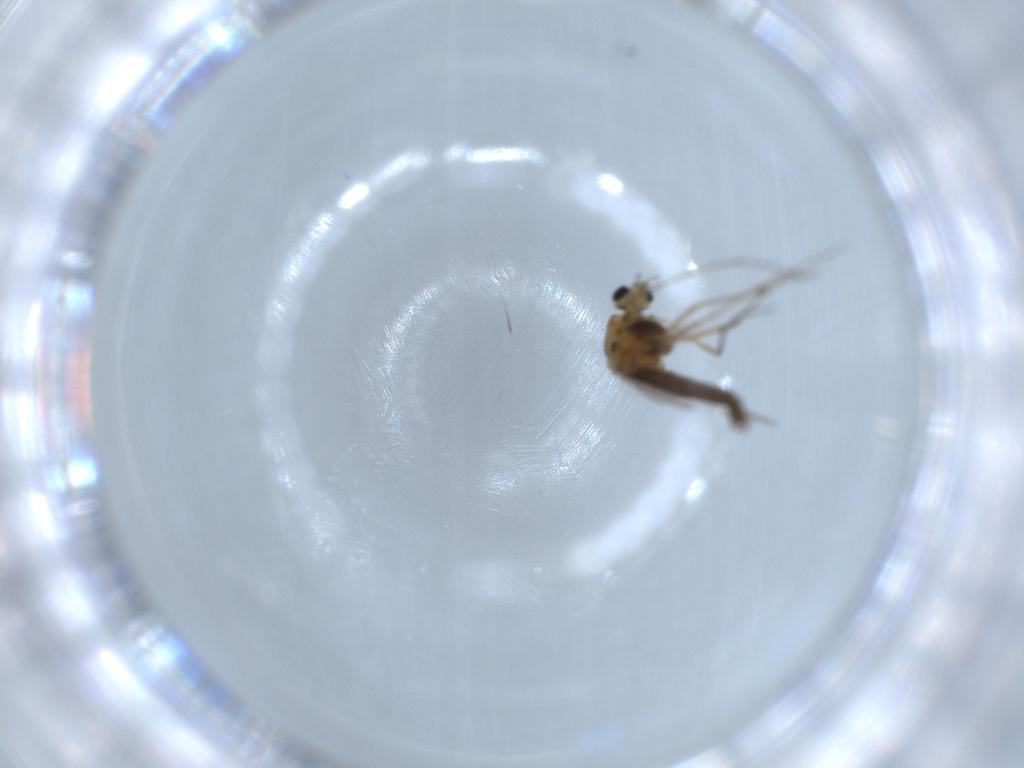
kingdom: Animalia
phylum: Arthropoda
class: Insecta
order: Diptera
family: Chironomidae
